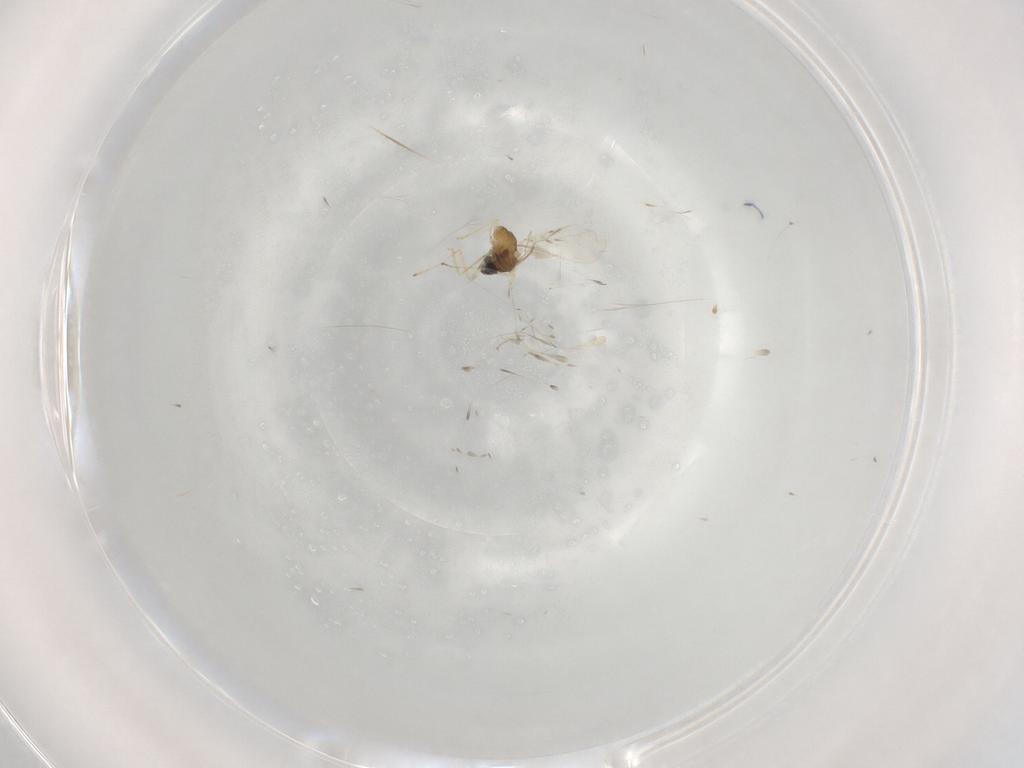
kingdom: Animalia
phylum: Arthropoda
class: Insecta
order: Diptera
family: Cecidomyiidae
